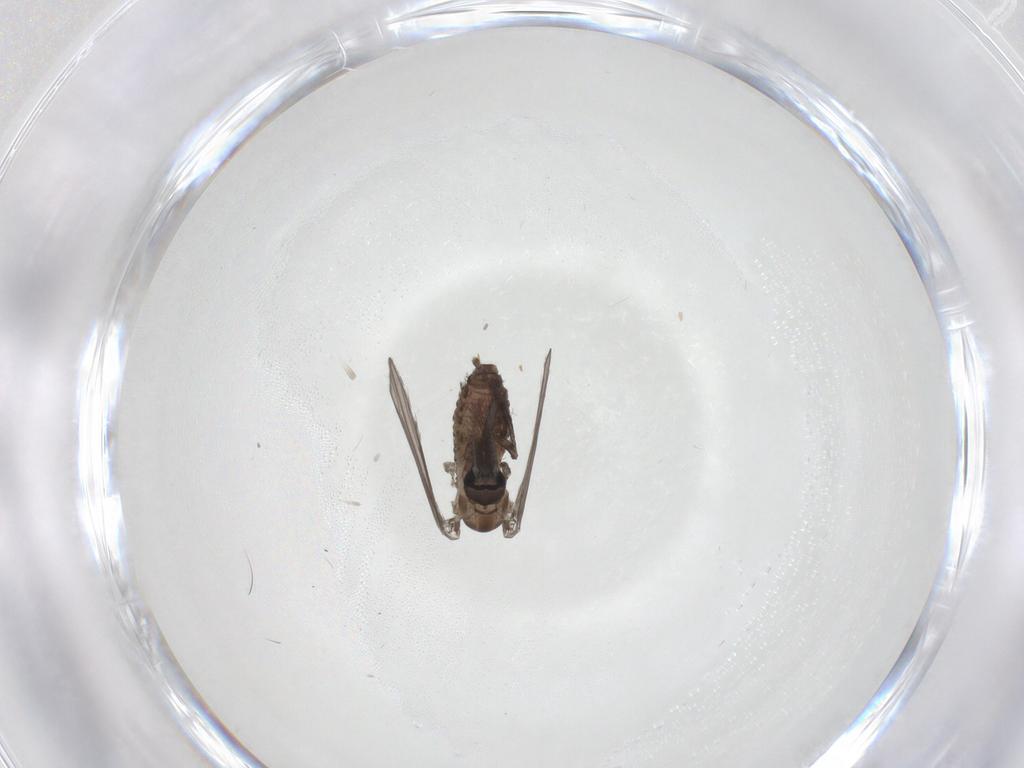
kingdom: Animalia
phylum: Arthropoda
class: Insecta
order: Diptera
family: Psychodidae
